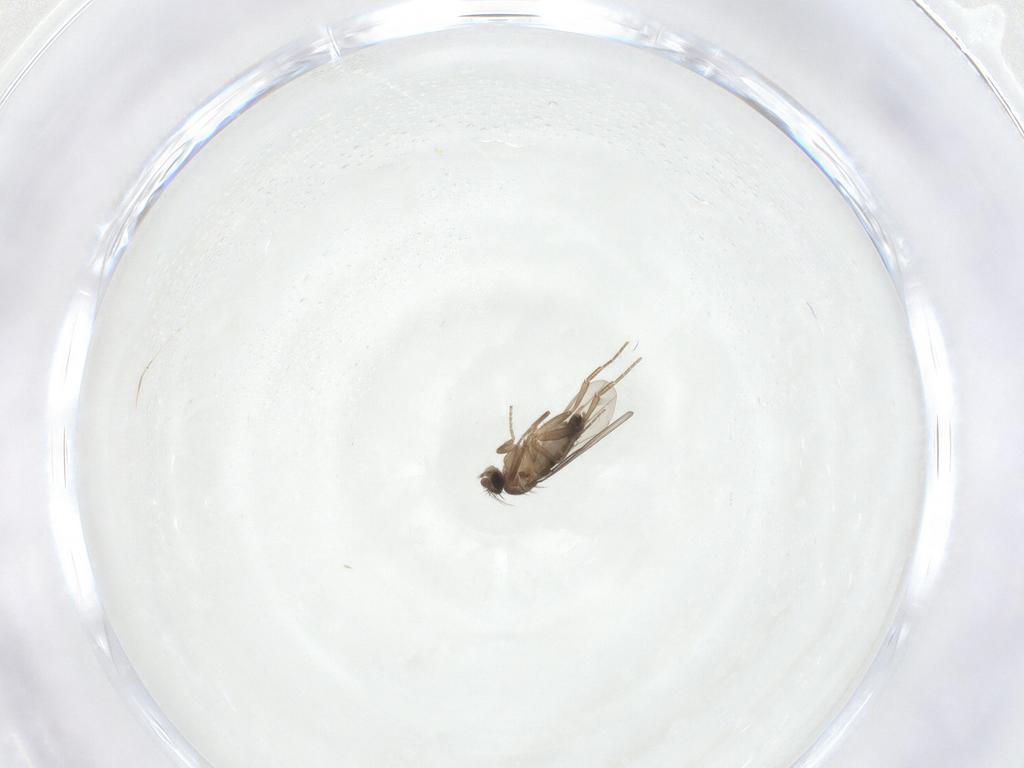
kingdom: Animalia
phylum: Arthropoda
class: Insecta
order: Diptera
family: Phoridae
